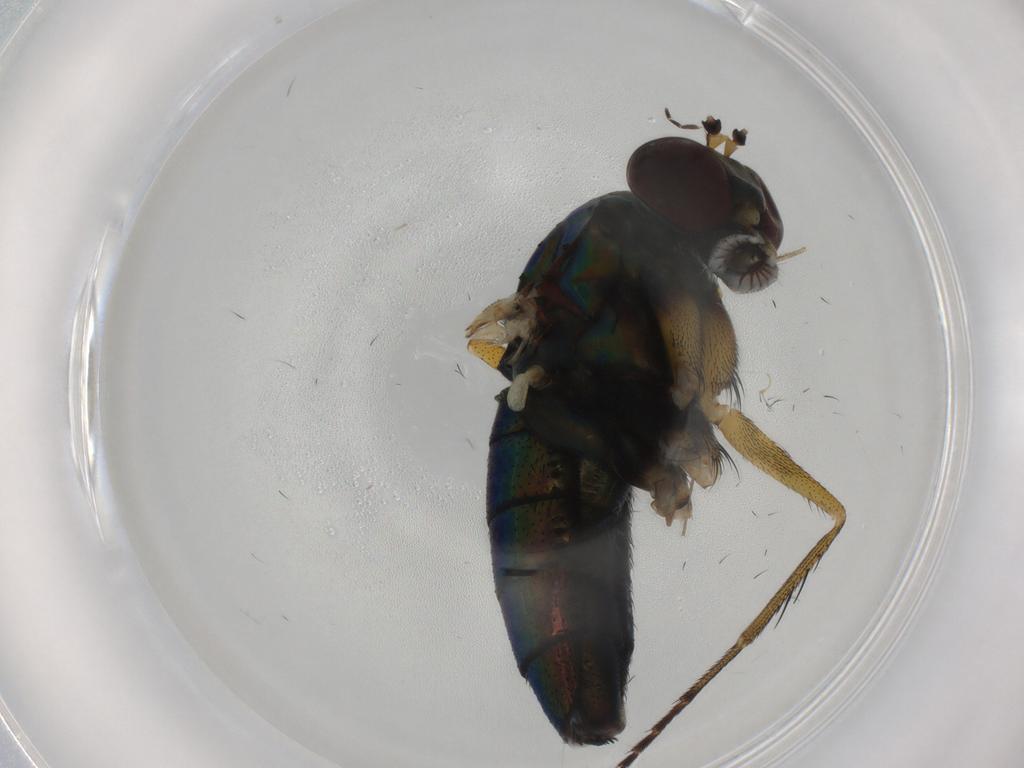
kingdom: Animalia
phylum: Arthropoda
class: Insecta
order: Diptera
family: Dolichopodidae
